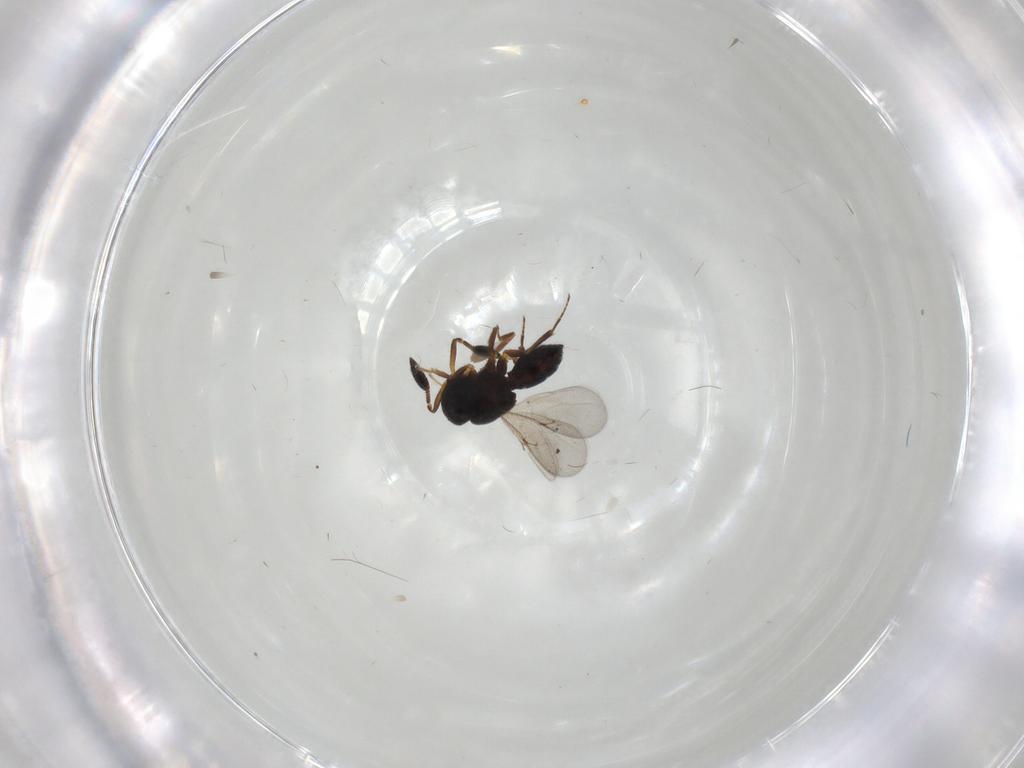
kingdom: Animalia
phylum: Arthropoda
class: Insecta
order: Hymenoptera
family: Scelionidae
